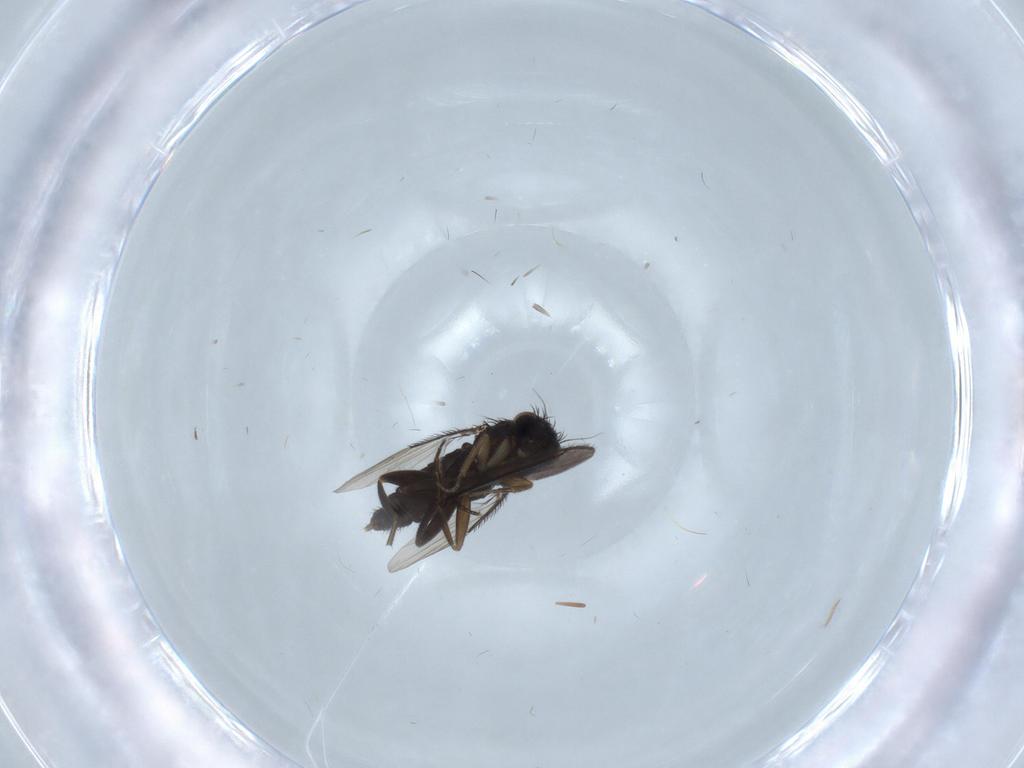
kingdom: Animalia
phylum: Arthropoda
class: Insecta
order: Diptera
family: Phoridae
